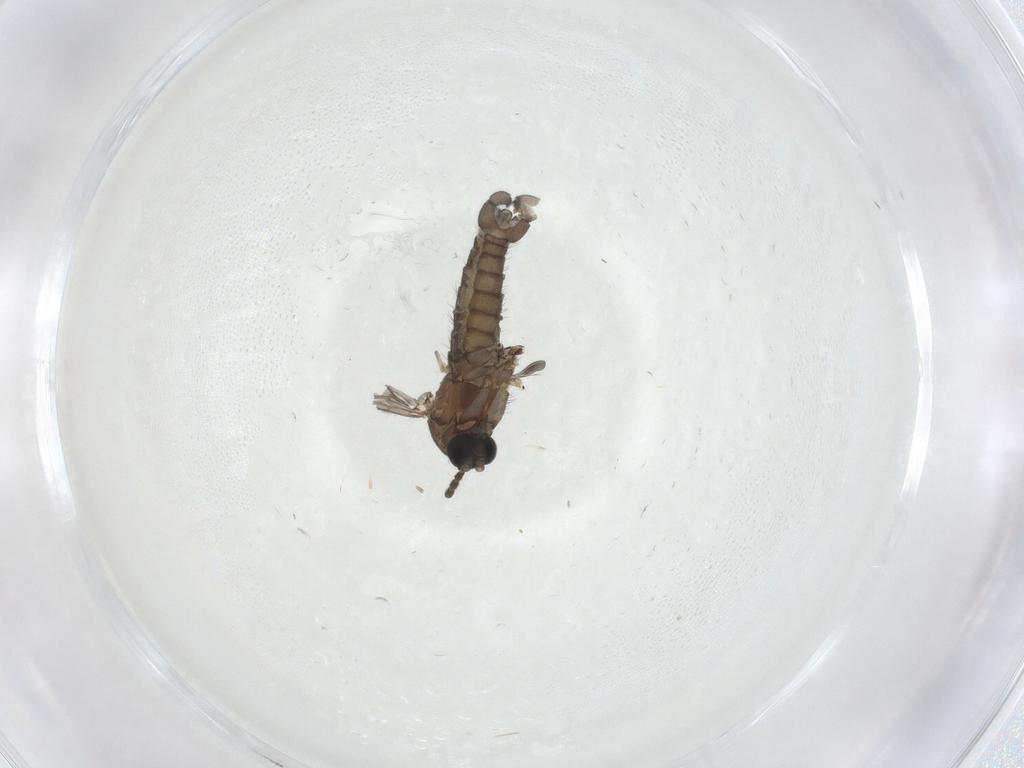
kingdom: Animalia
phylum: Arthropoda
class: Insecta
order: Diptera
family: Sciaridae
